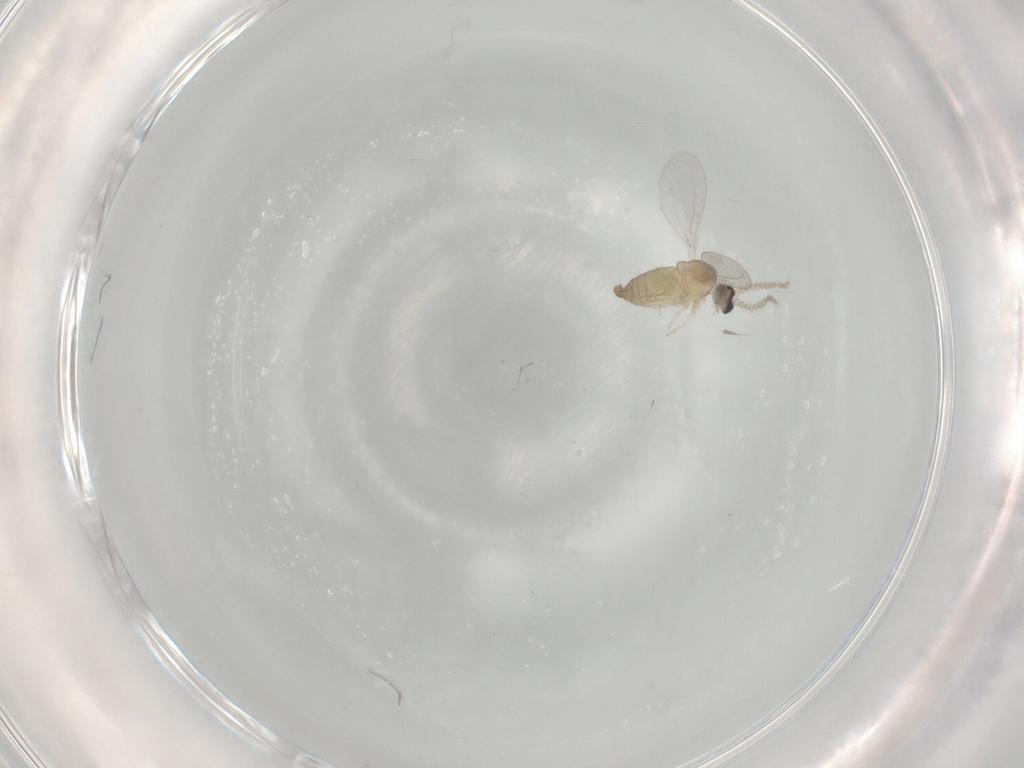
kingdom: Animalia
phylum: Arthropoda
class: Insecta
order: Diptera
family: Cecidomyiidae
